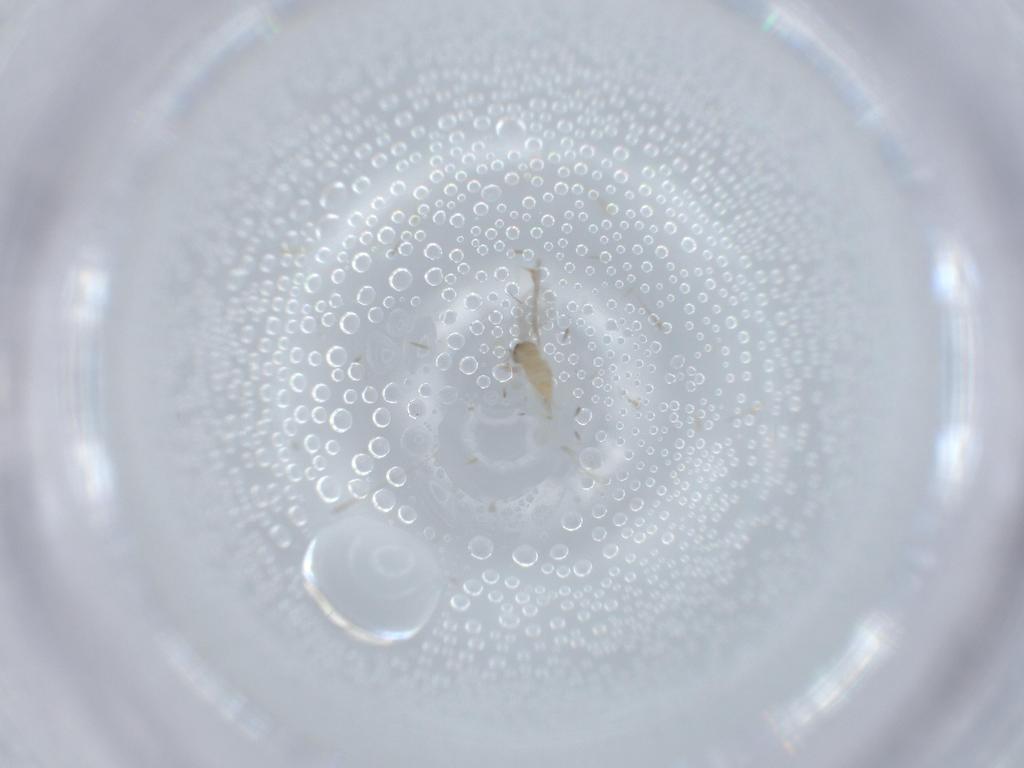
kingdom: Animalia
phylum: Arthropoda
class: Insecta
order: Diptera
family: Cecidomyiidae
